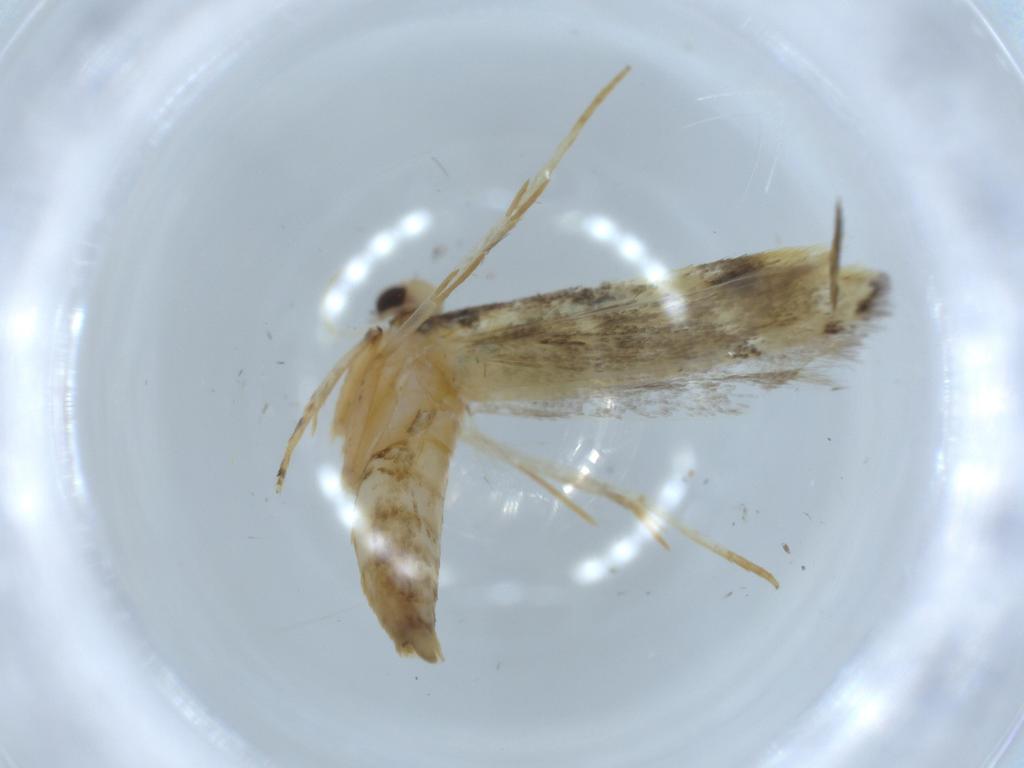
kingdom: Animalia
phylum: Arthropoda
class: Insecta
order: Lepidoptera
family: Autostichidae
